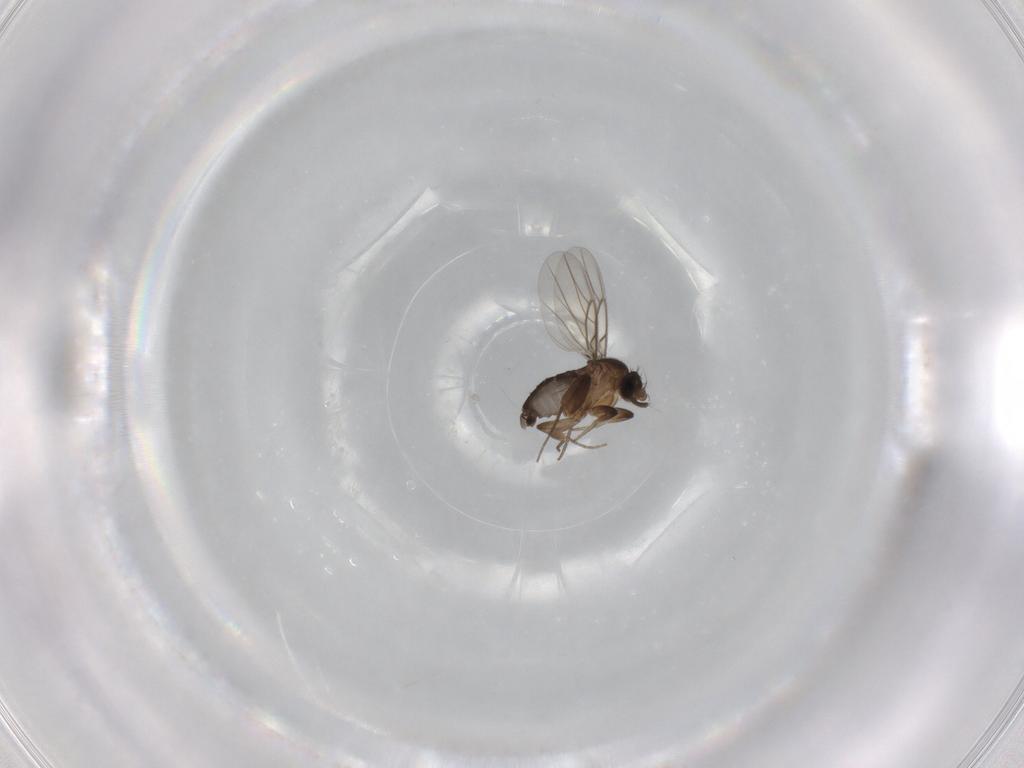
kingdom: Animalia
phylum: Arthropoda
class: Insecta
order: Diptera
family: Phoridae
